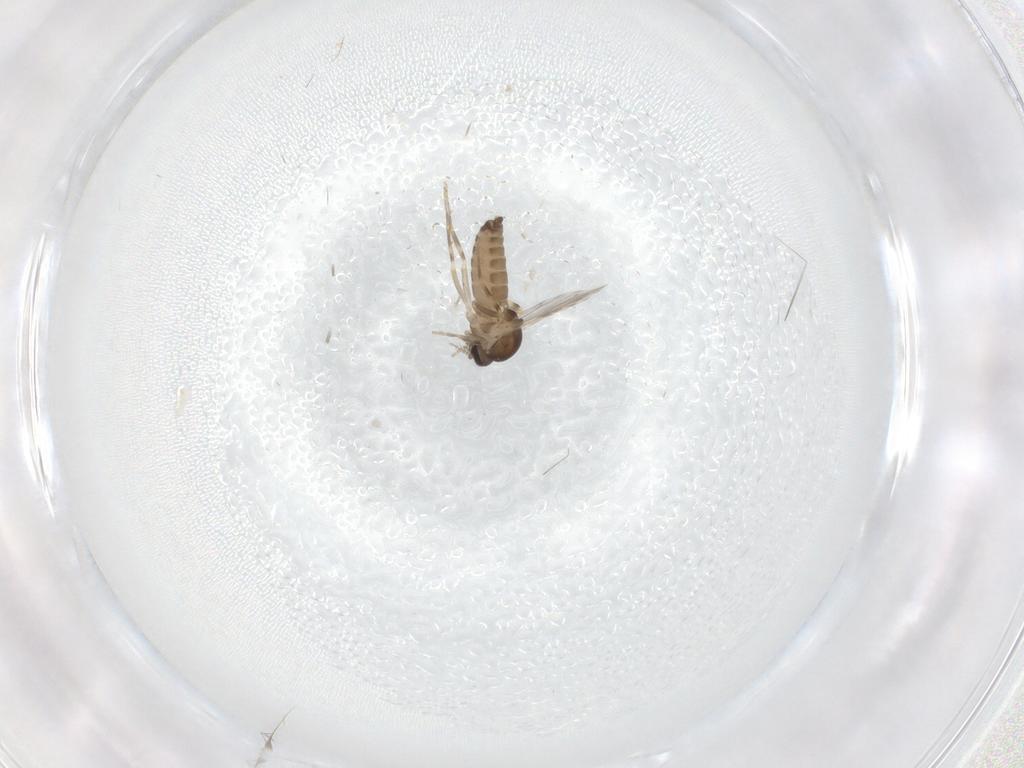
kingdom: Animalia
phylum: Arthropoda
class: Insecta
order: Diptera
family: Ceratopogonidae
